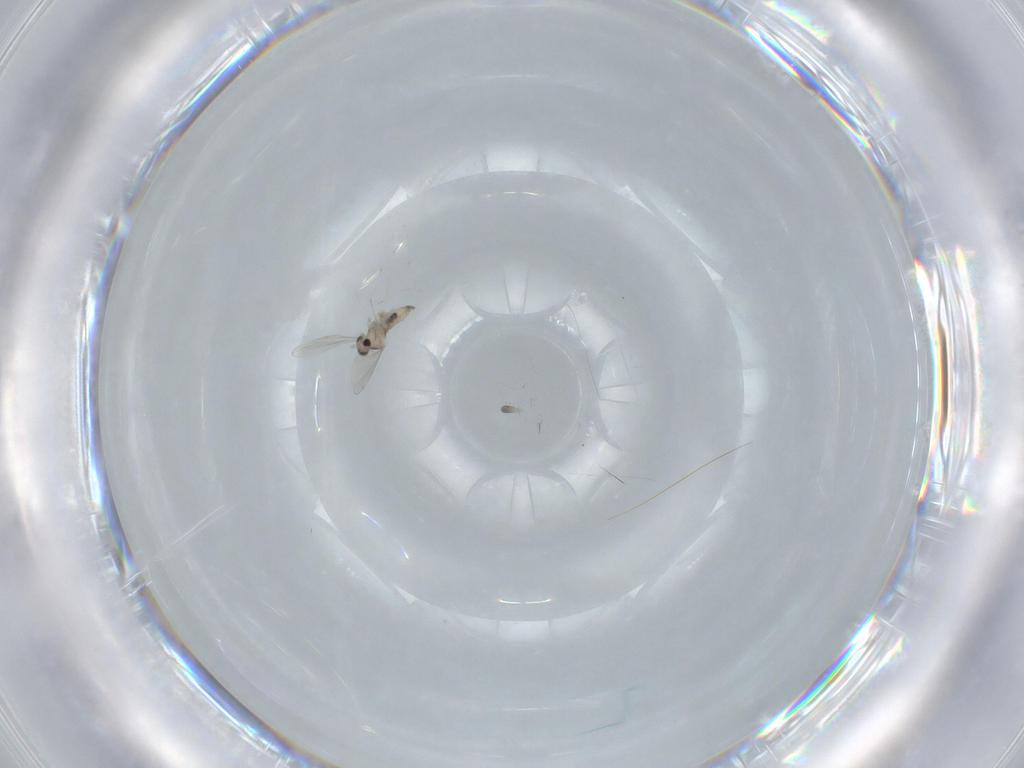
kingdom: Animalia
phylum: Arthropoda
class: Insecta
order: Diptera
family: Cecidomyiidae
